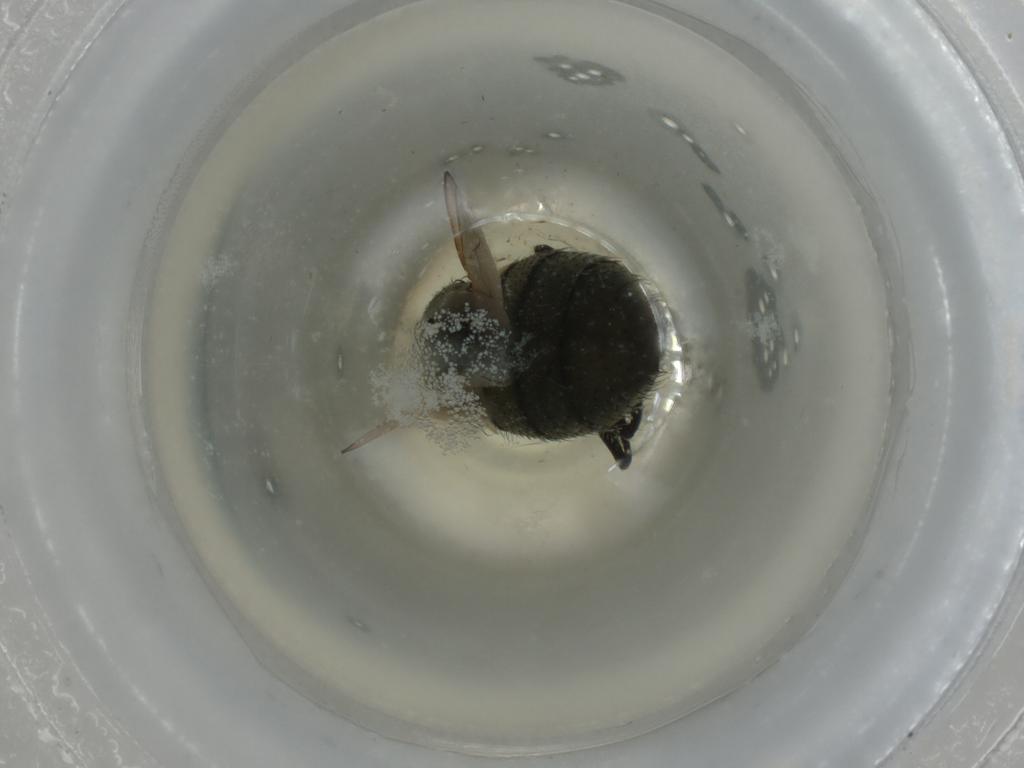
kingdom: Animalia
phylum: Arthropoda
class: Insecta
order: Diptera
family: Muscidae
